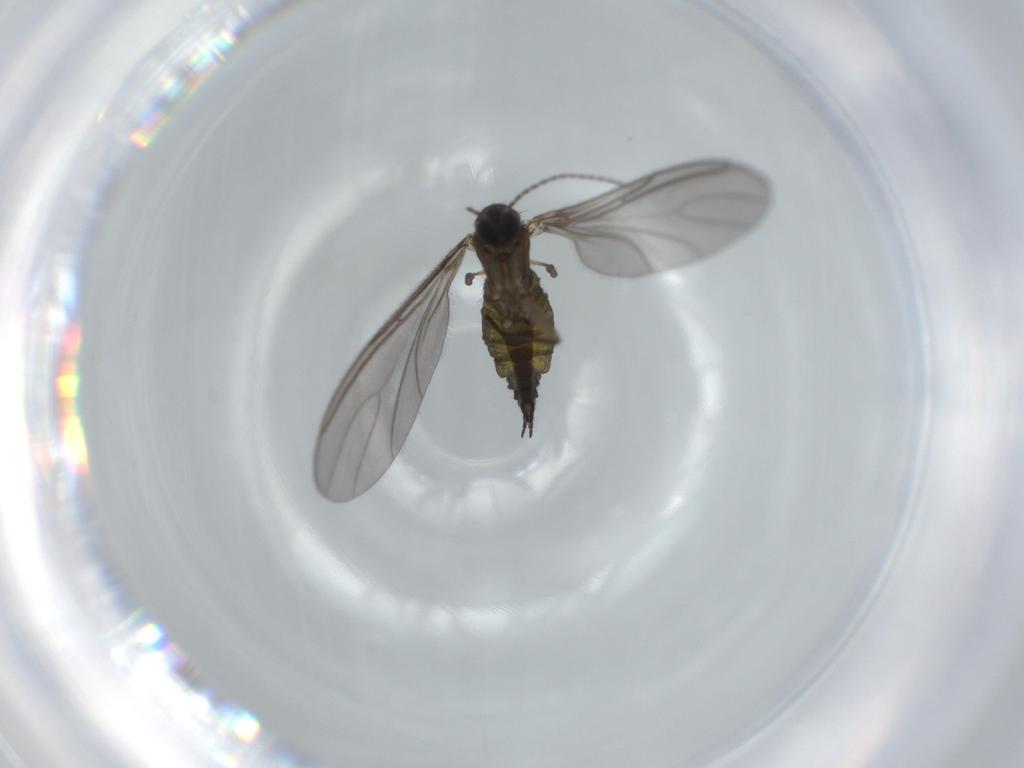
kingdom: Animalia
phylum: Arthropoda
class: Insecta
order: Diptera
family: Sciaridae
